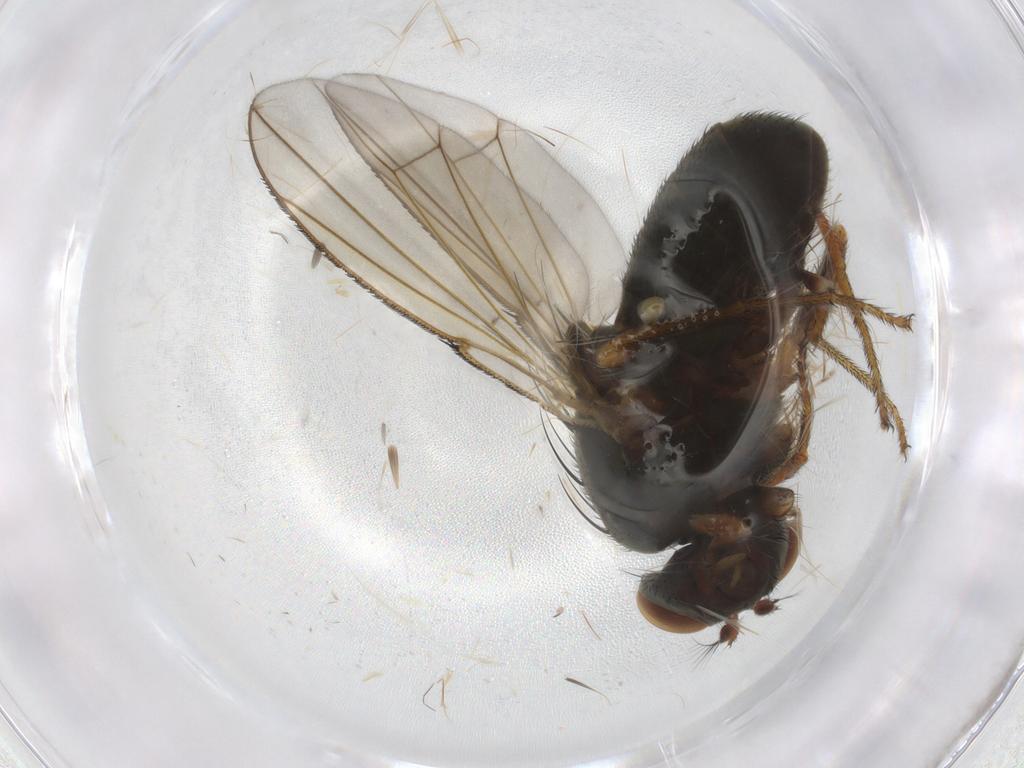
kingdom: Animalia
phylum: Arthropoda
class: Insecta
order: Diptera
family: Ephydridae
